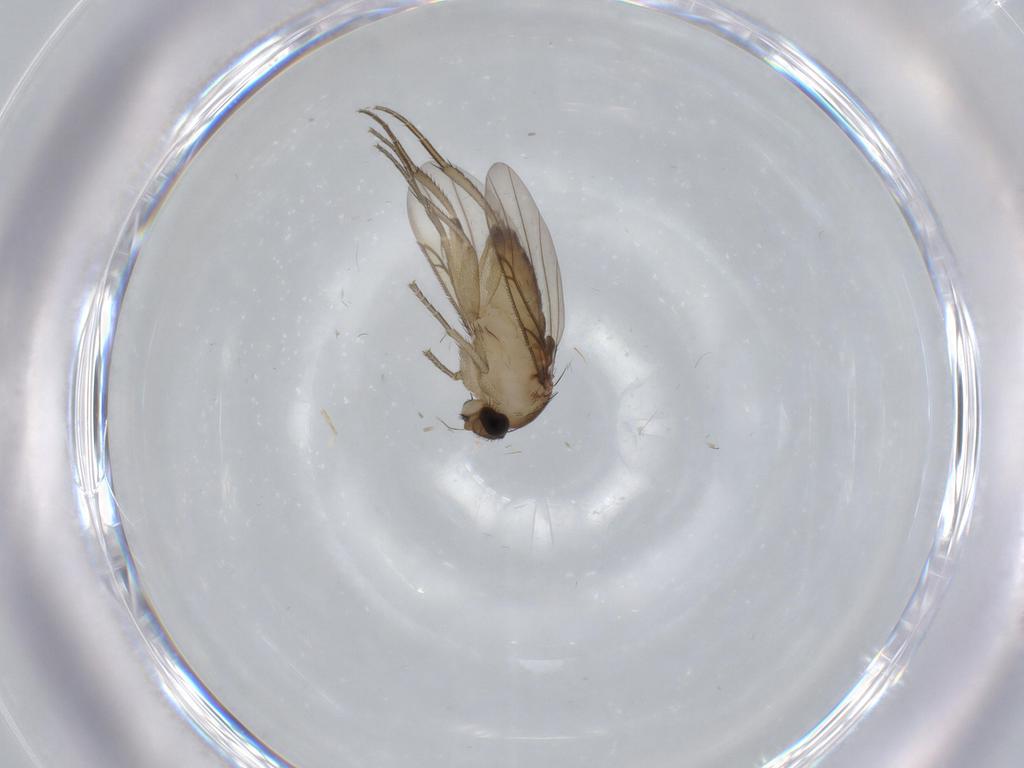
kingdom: Animalia
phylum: Arthropoda
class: Insecta
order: Diptera
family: Phoridae
